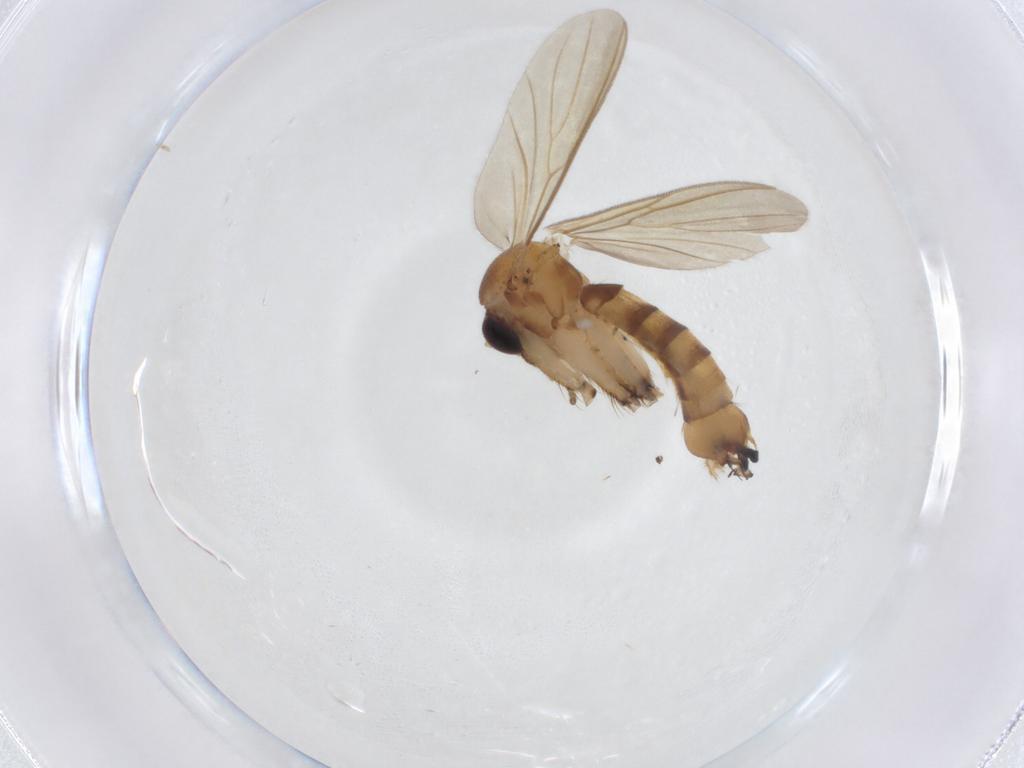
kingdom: Animalia
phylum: Arthropoda
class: Insecta
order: Diptera
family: Mycetophilidae
